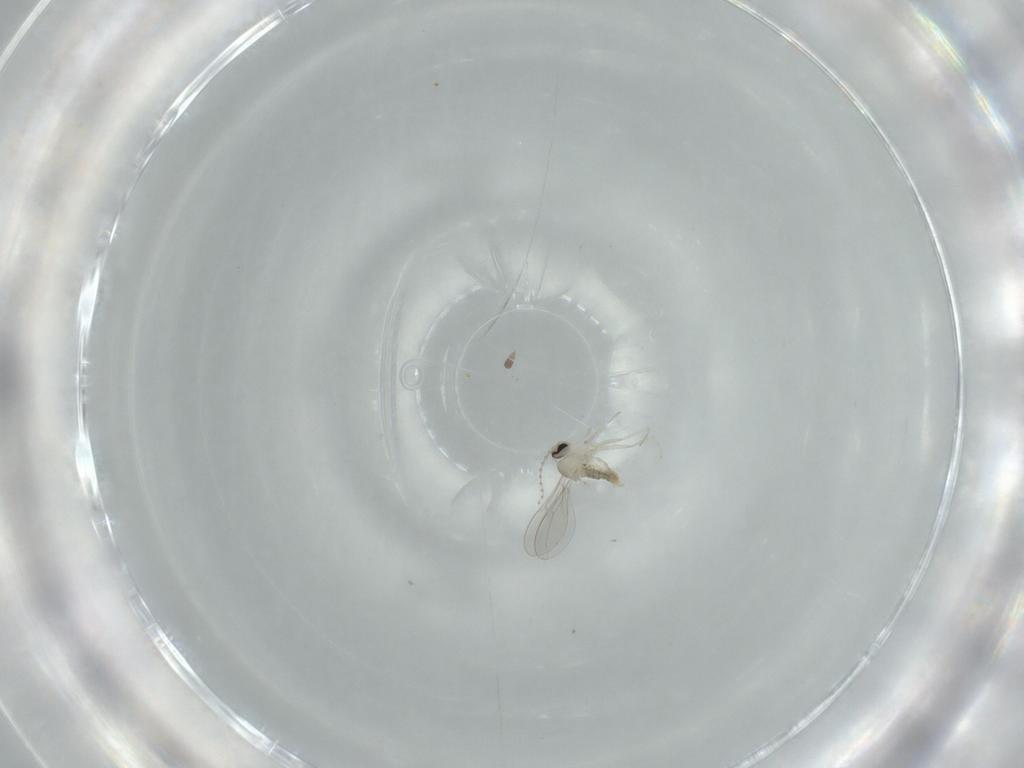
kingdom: Animalia
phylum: Arthropoda
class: Insecta
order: Diptera
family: Cecidomyiidae
